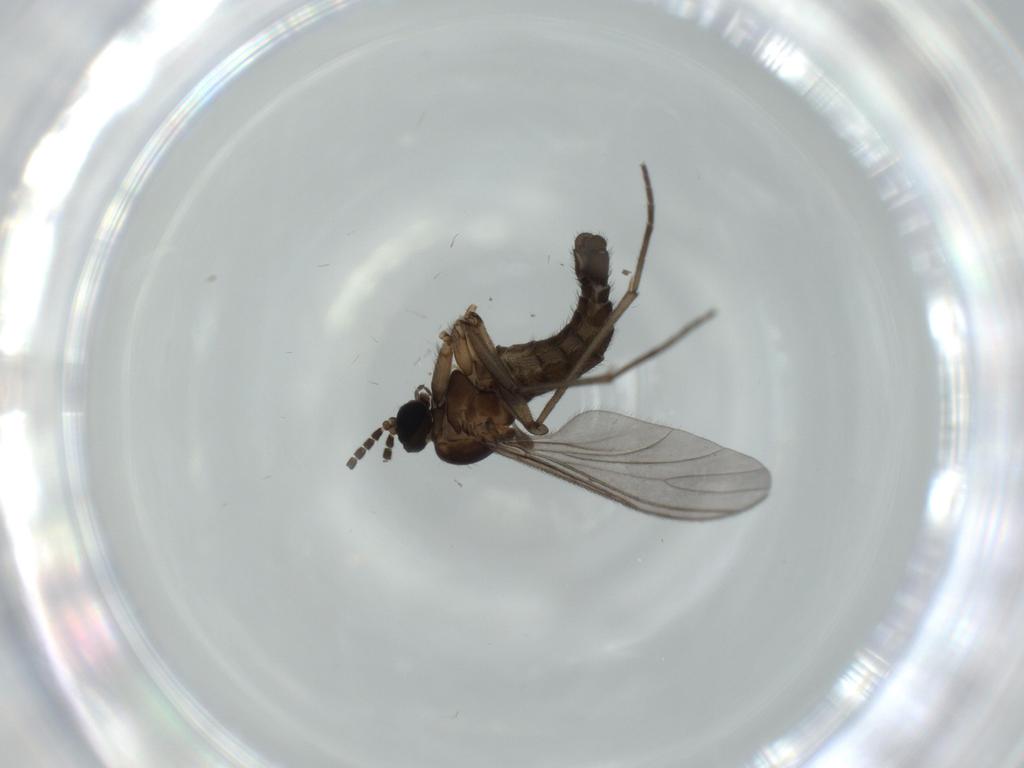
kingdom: Animalia
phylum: Arthropoda
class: Insecta
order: Diptera
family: Sciaridae
